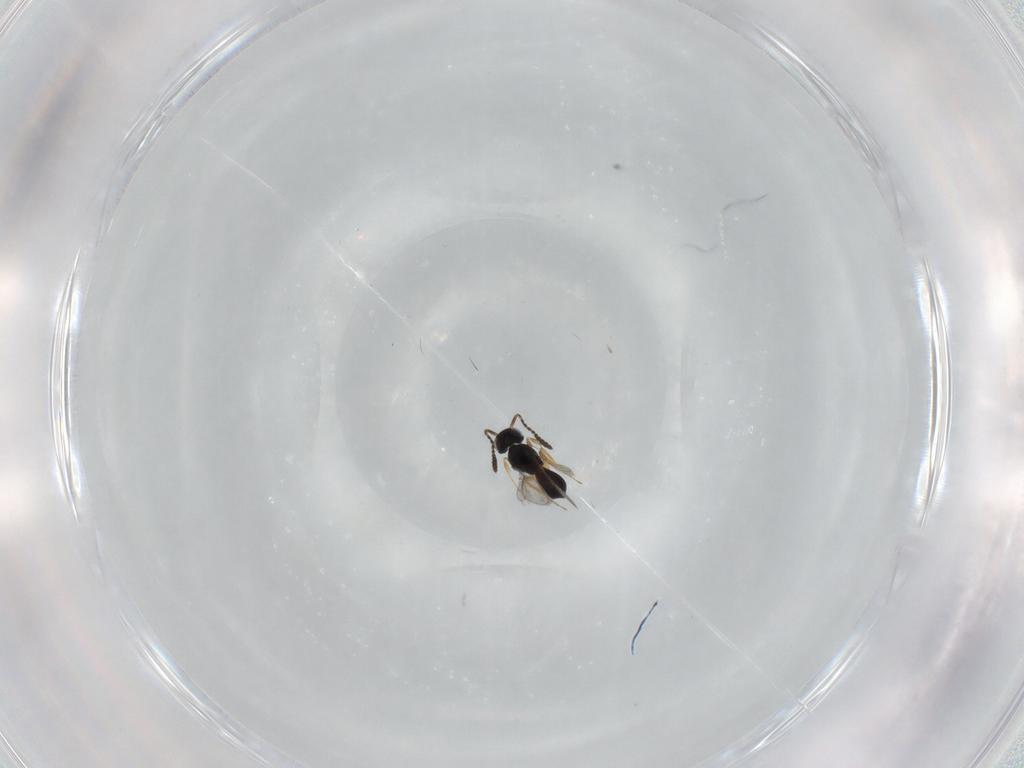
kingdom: Animalia
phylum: Arthropoda
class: Insecta
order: Hymenoptera
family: Scelionidae
